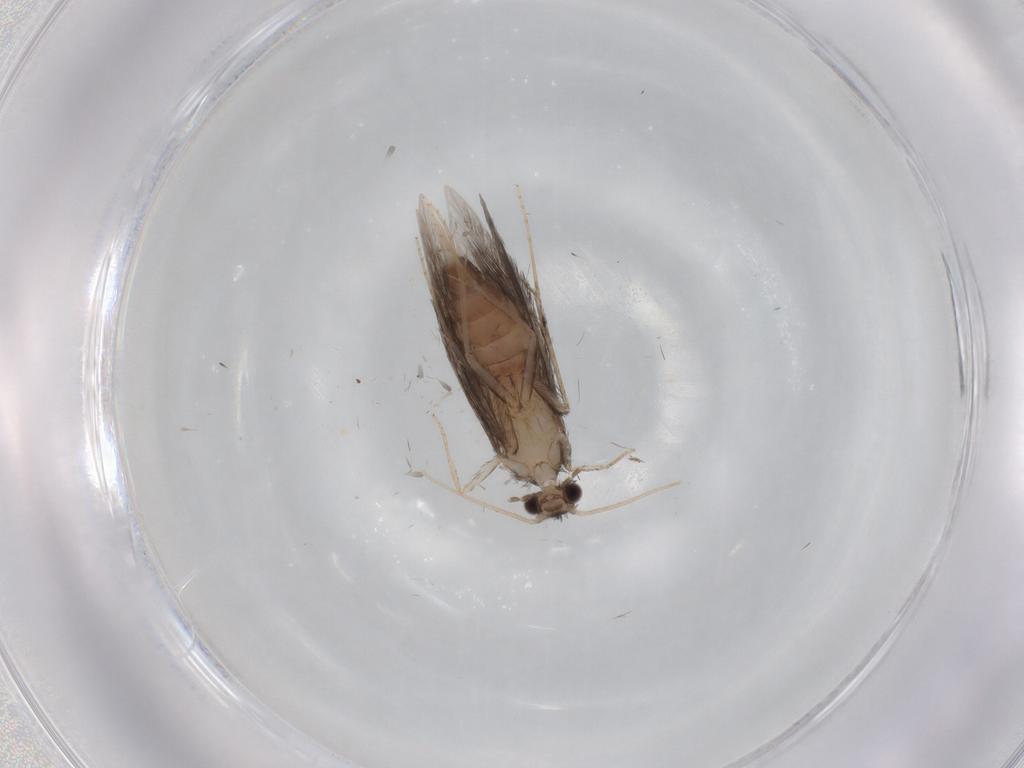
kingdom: Animalia
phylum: Arthropoda
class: Insecta
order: Trichoptera
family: Hydroptilidae
